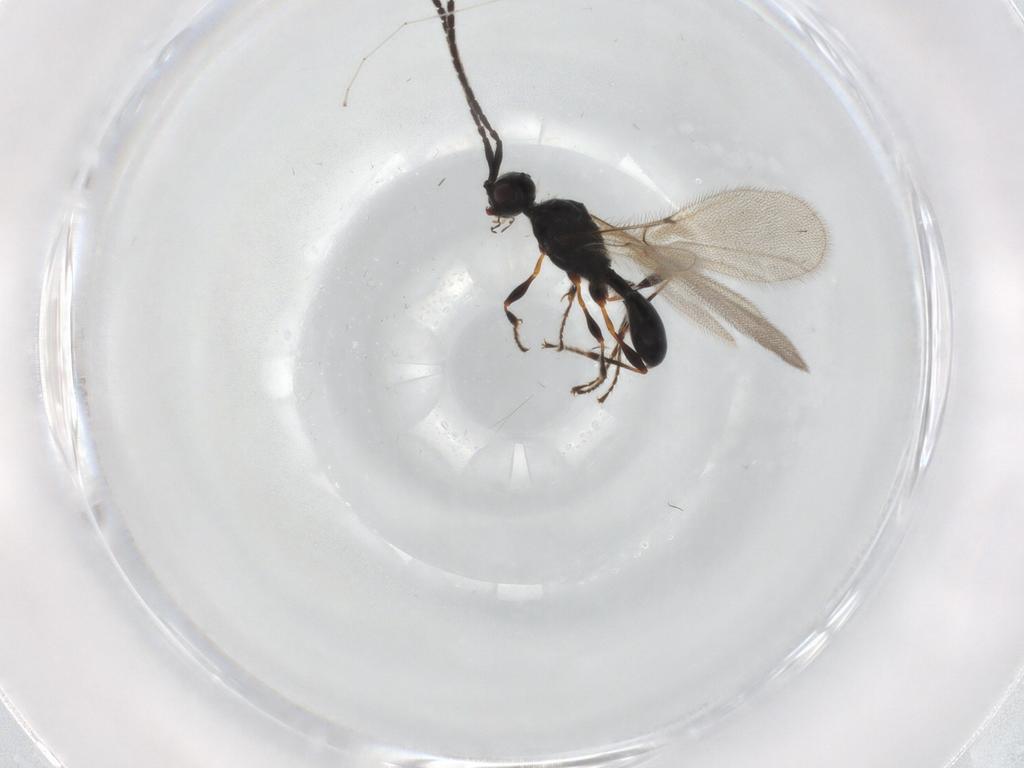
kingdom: Animalia
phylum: Arthropoda
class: Insecta
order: Hymenoptera
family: Diapriidae
